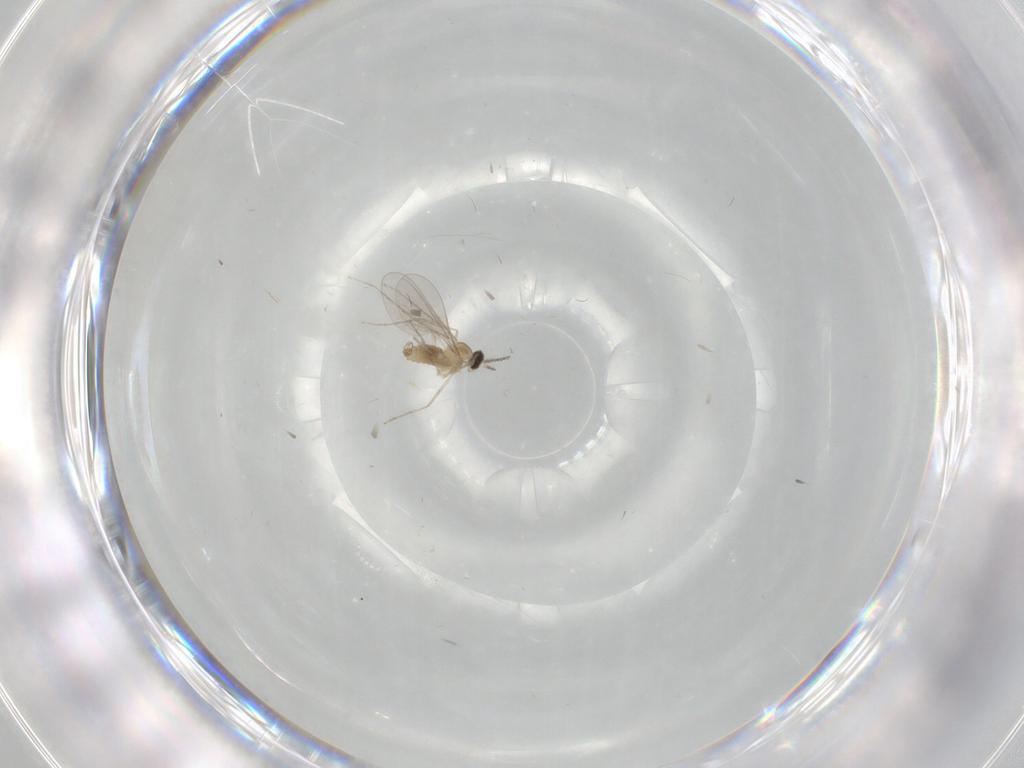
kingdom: Animalia
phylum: Arthropoda
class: Insecta
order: Diptera
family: Cecidomyiidae
